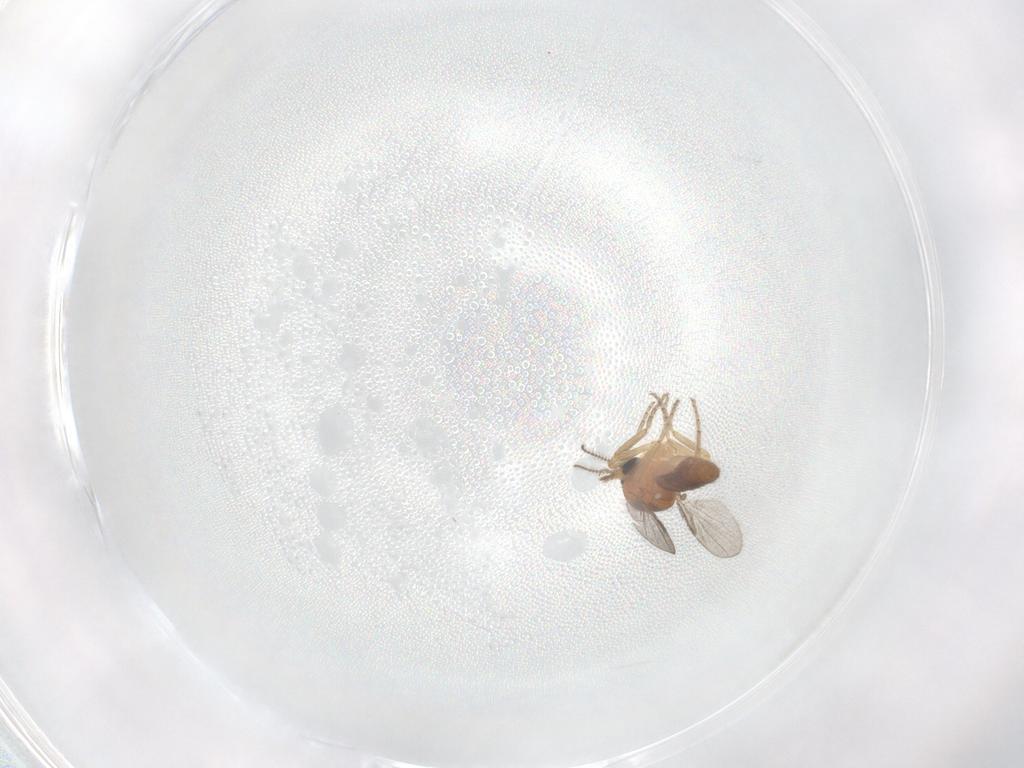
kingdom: Animalia
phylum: Arthropoda
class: Insecta
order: Diptera
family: Ceratopogonidae
